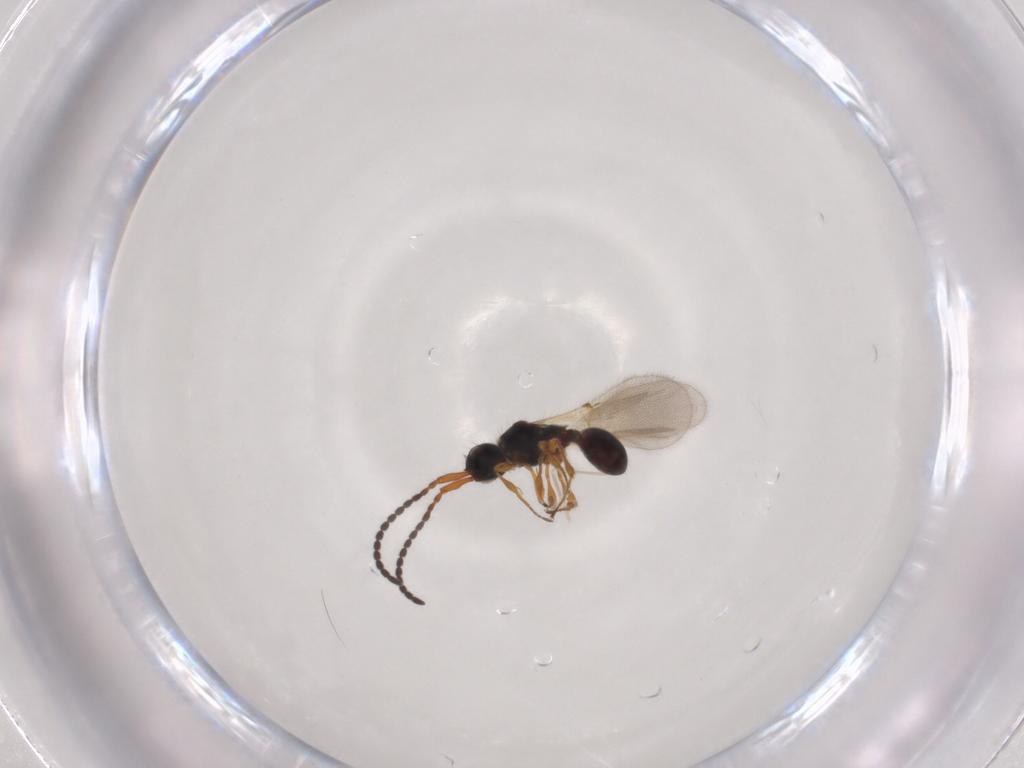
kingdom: Animalia
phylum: Arthropoda
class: Insecta
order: Hymenoptera
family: Diapriidae
